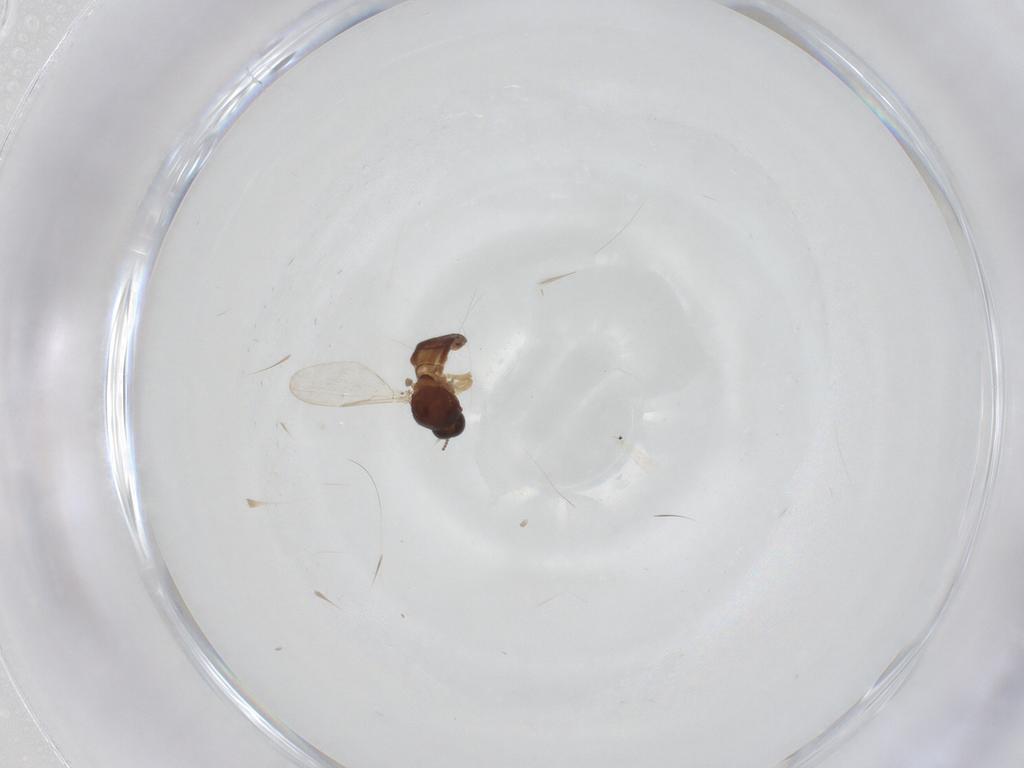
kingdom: Animalia
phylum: Arthropoda
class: Insecta
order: Diptera
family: Ceratopogonidae
